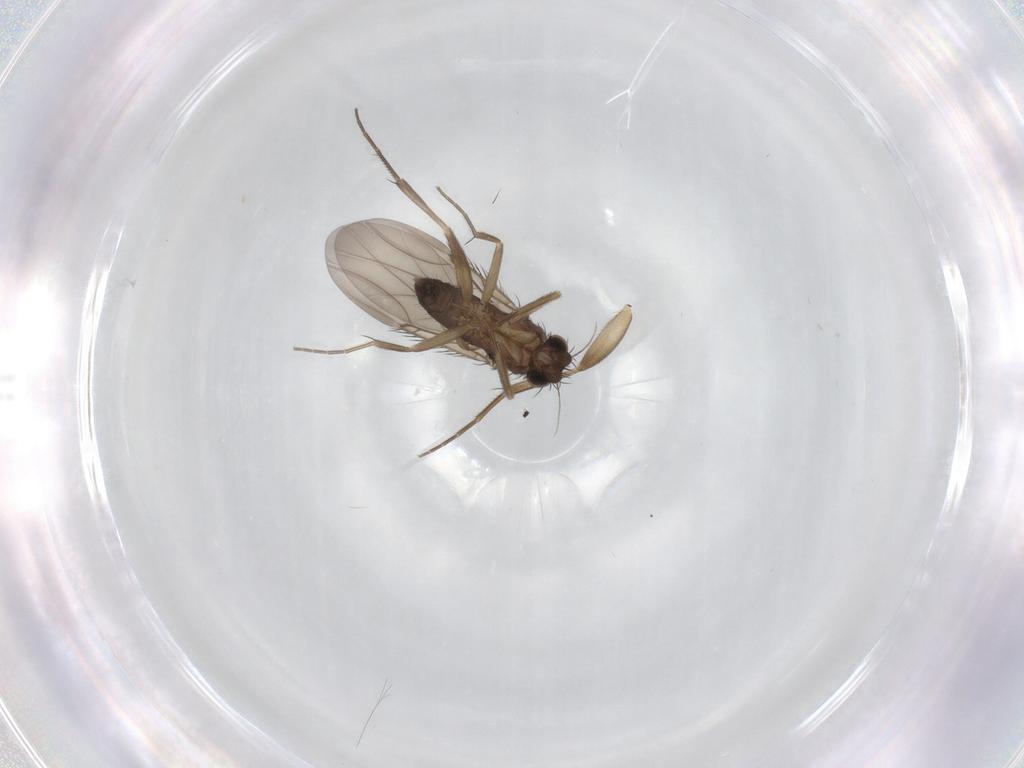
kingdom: Animalia
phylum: Arthropoda
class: Insecta
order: Diptera
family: Phoridae
